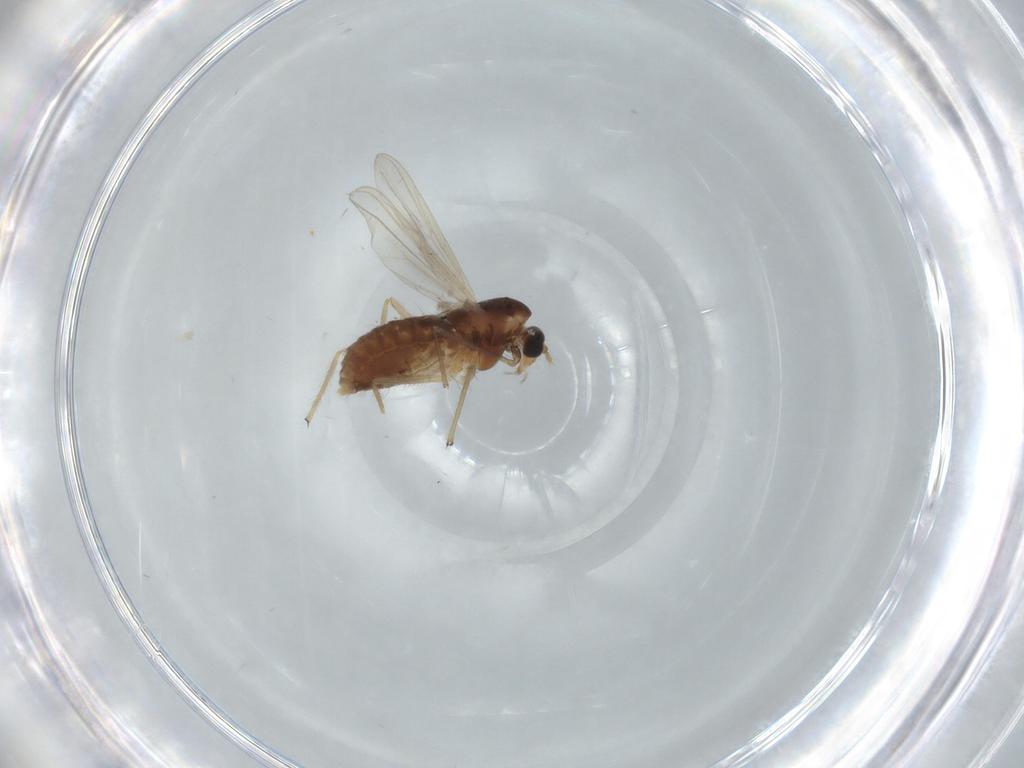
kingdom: Animalia
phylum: Arthropoda
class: Insecta
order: Diptera
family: Chironomidae
